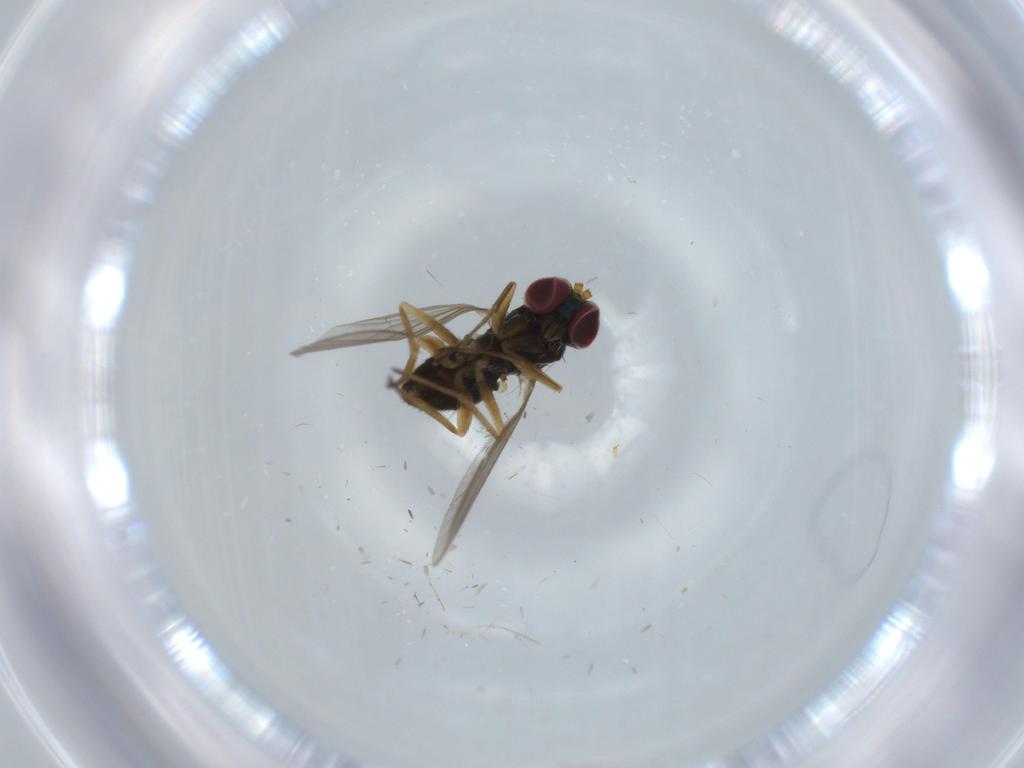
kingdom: Animalia
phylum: Arthropoda
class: Insecta
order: Diptera
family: Dolichopodidae
